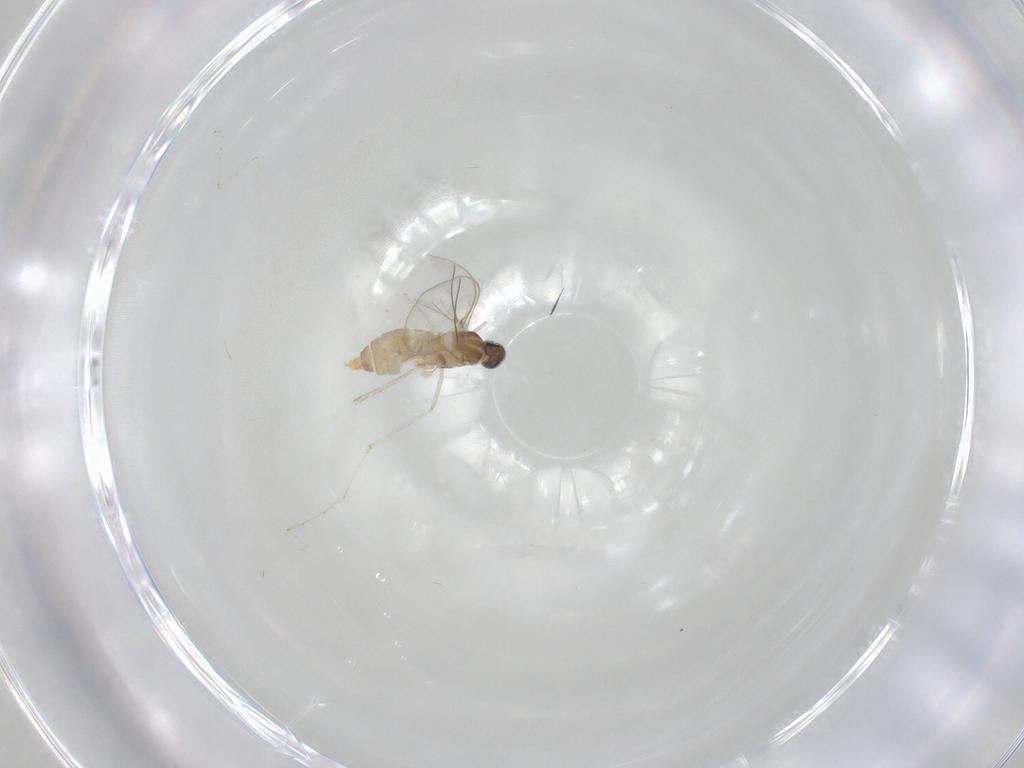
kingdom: Animalia
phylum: Arthropoda
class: Insecta
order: Diptera
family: Cecidomyiidae
